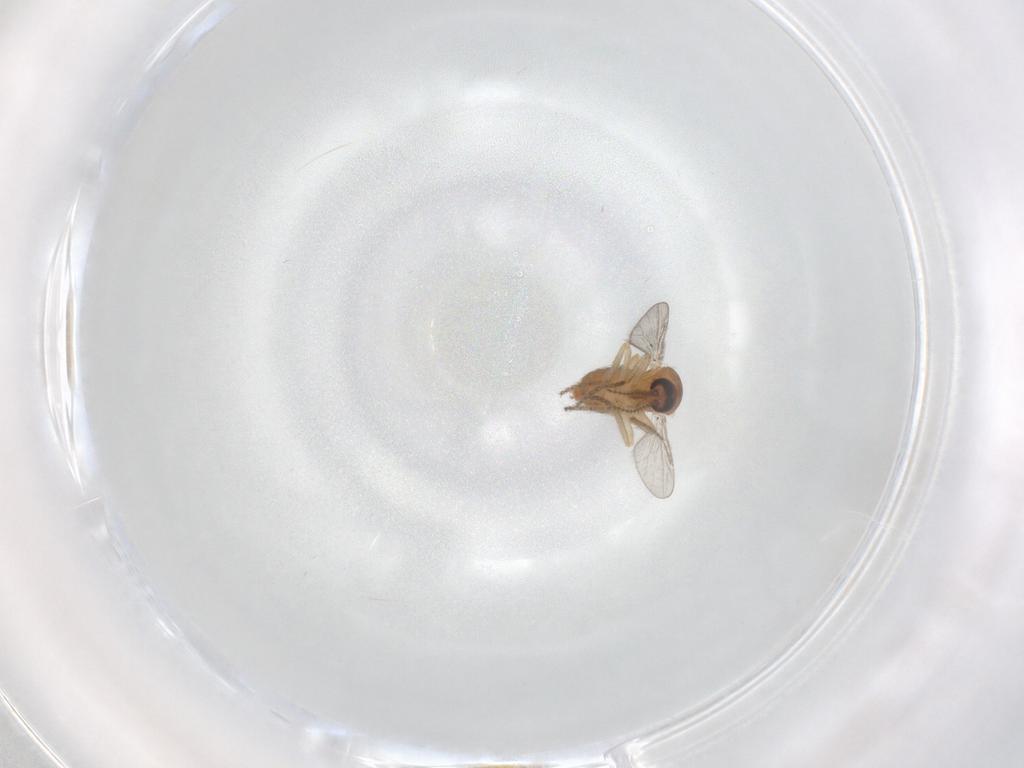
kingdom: Animalia
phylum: Arthropoda
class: Insecta
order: Diptera
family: Ceratopogonidae
